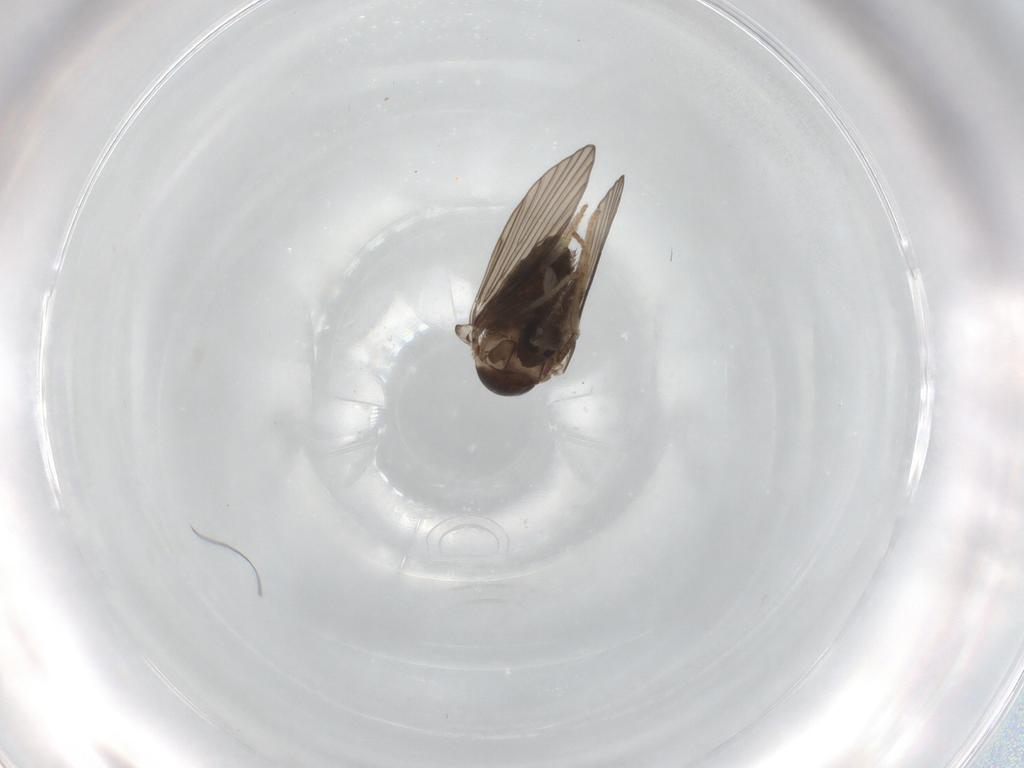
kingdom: Animalia
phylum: Arthropoda
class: Insecta
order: Diptera
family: Psychodidae
